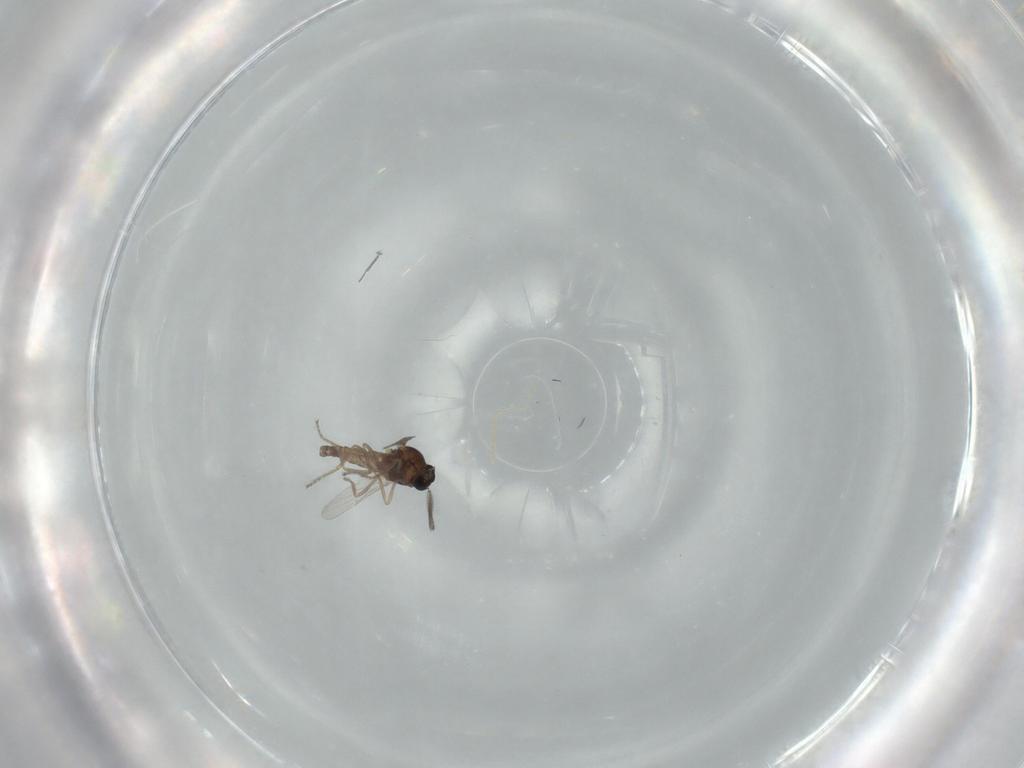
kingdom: Animalia
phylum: Arthropoda
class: Insecta
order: Diptera
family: Ceratopogonidae
